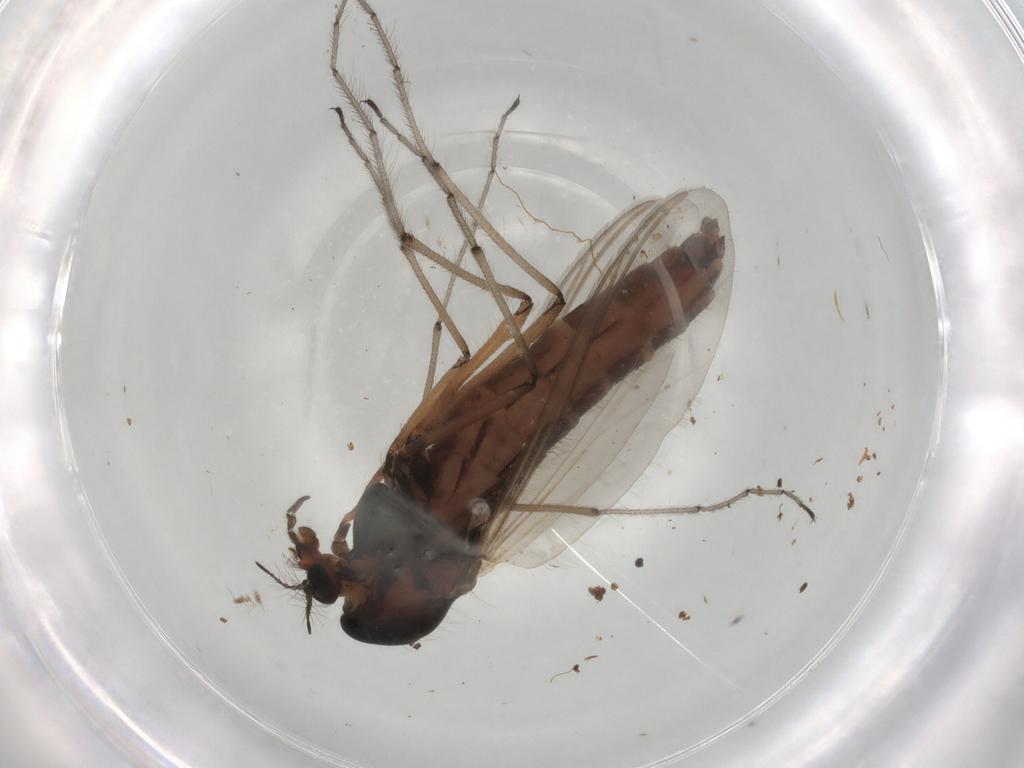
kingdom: Animalia
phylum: Arthropoda
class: Insecta
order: Diptera
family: Chironomidae
